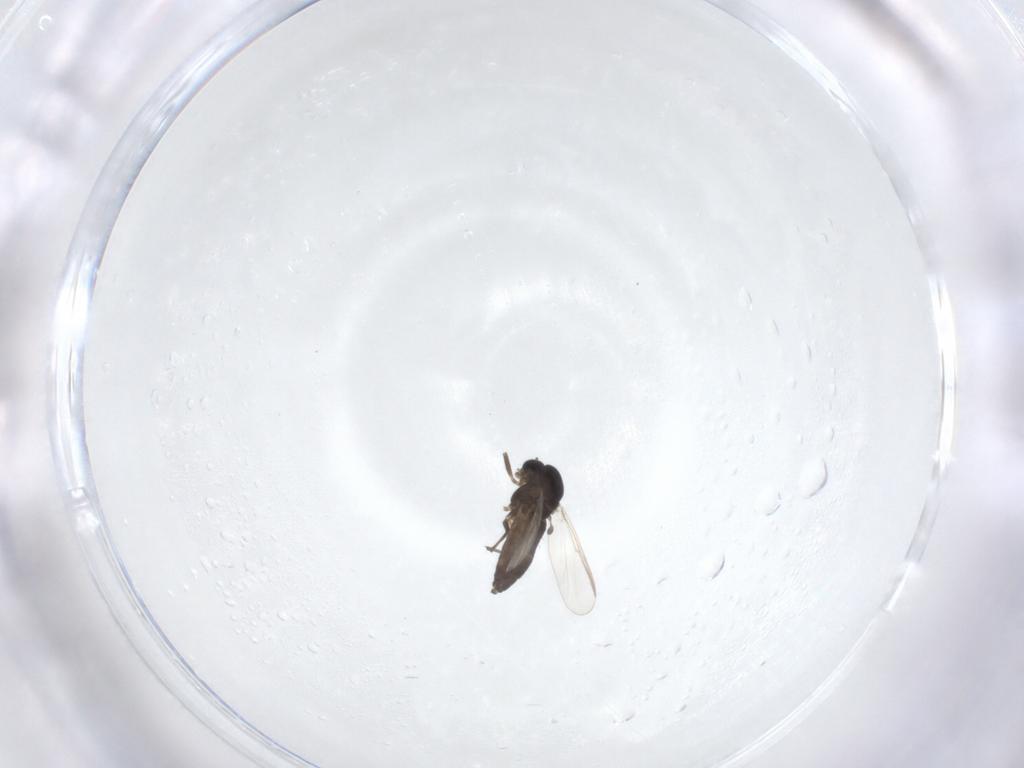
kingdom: Animalia
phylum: Arthropoda
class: Insecta
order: Diptera
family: Chironomidae
